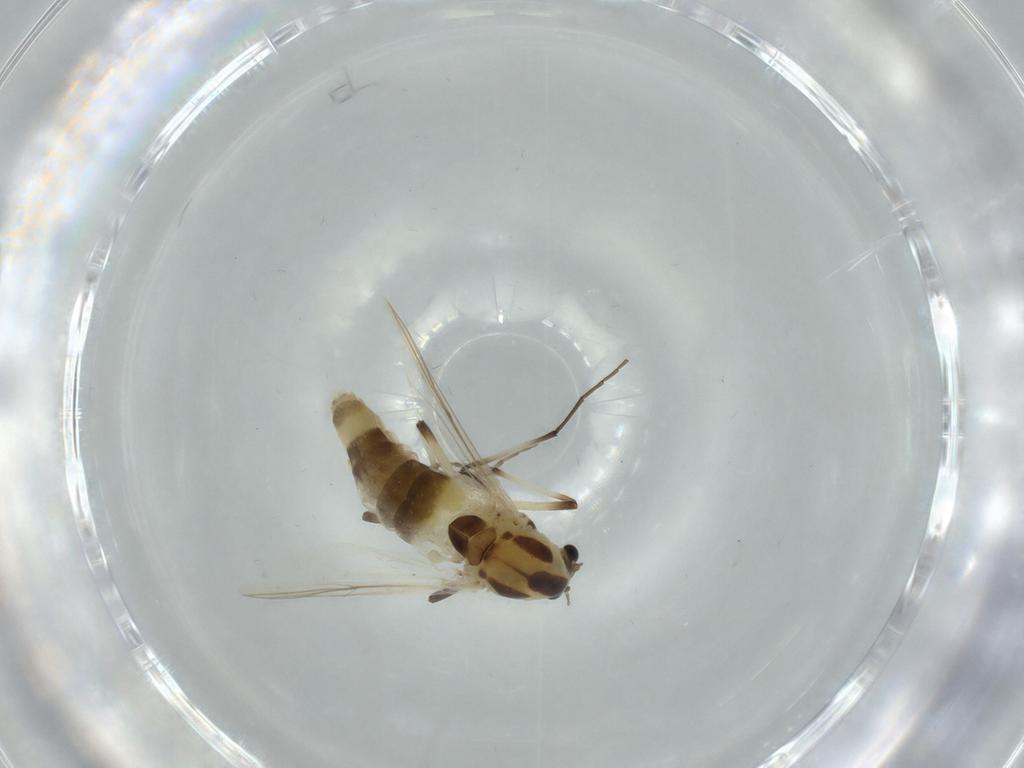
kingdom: Animalia
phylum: Arthropoda
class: Insecta
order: Diptera
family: Chironomidae
